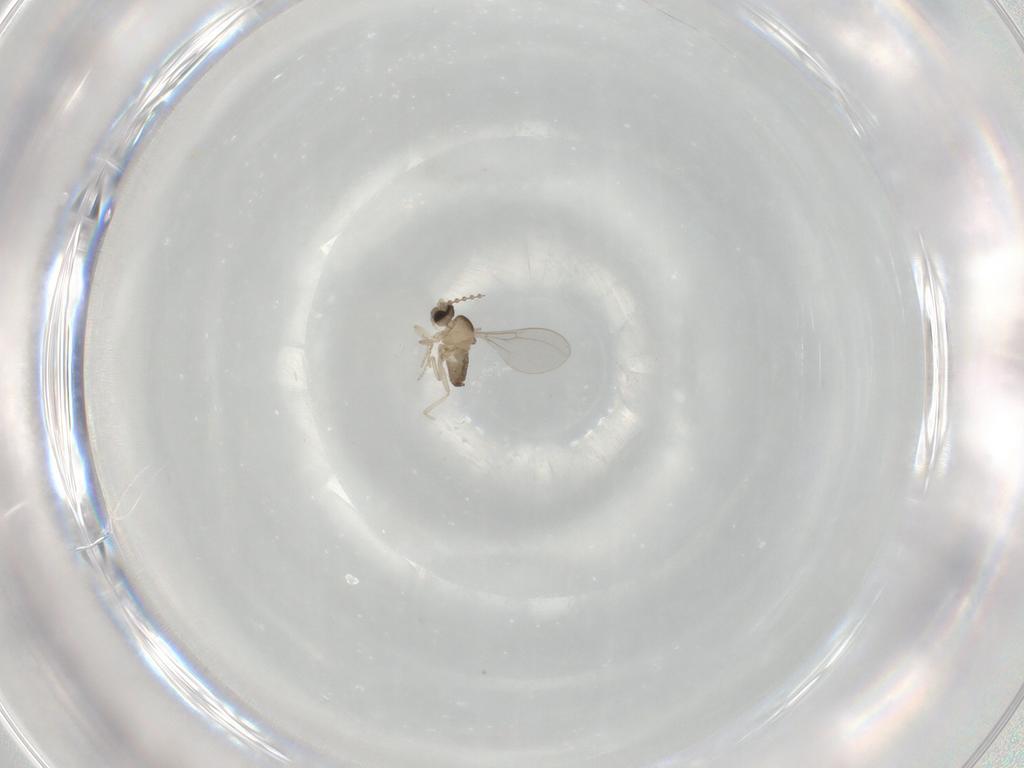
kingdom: Animalia
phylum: Arthropoda
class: Insecta
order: Diptera
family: Cecidomyiidae
